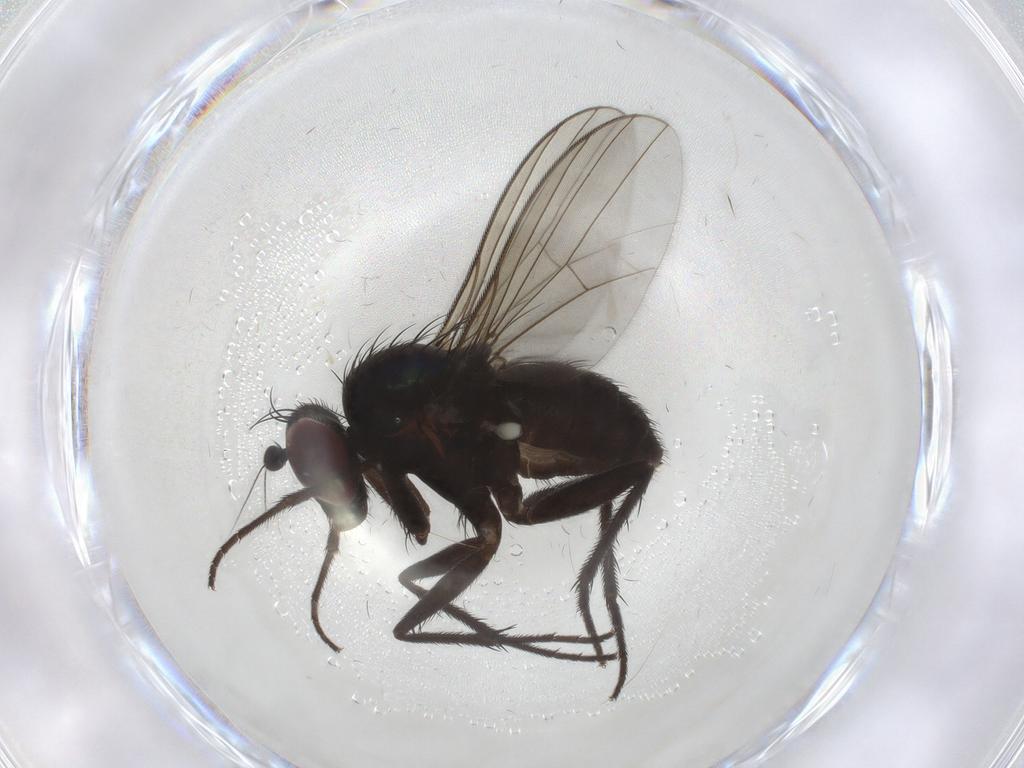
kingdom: Animalia
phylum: Arthropoda
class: Insecta
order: Diptera
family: Dolichopodidae
